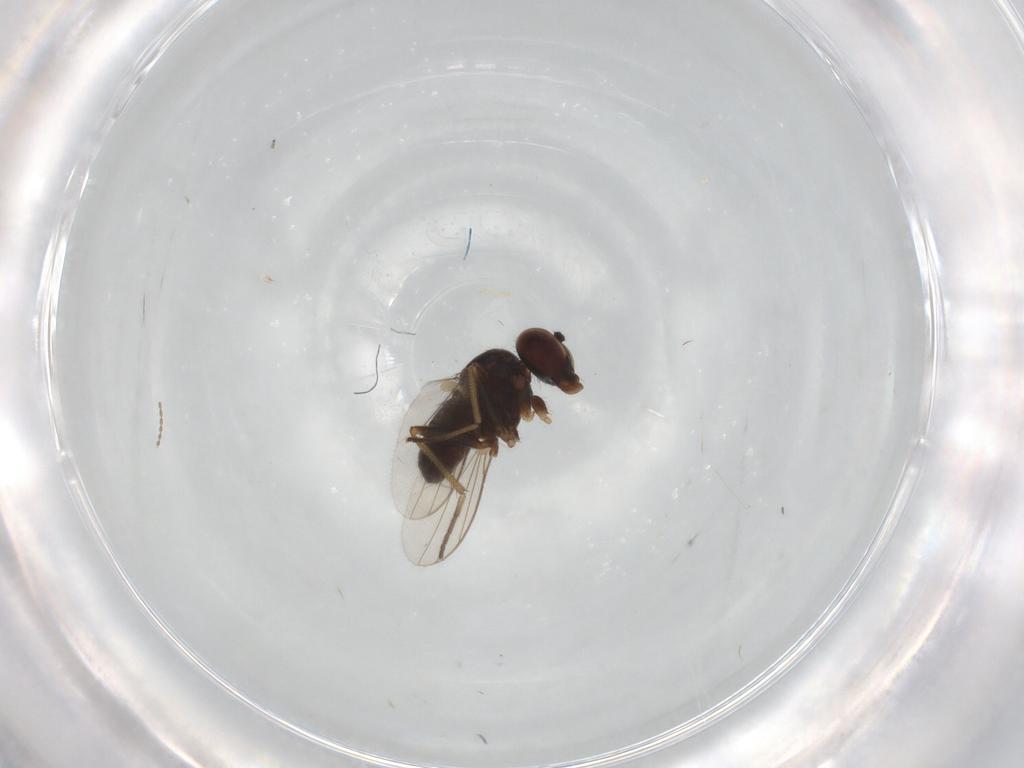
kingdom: Animalia
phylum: Arthropoda
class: Insecta
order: Diptera
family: Dolichopodidae
